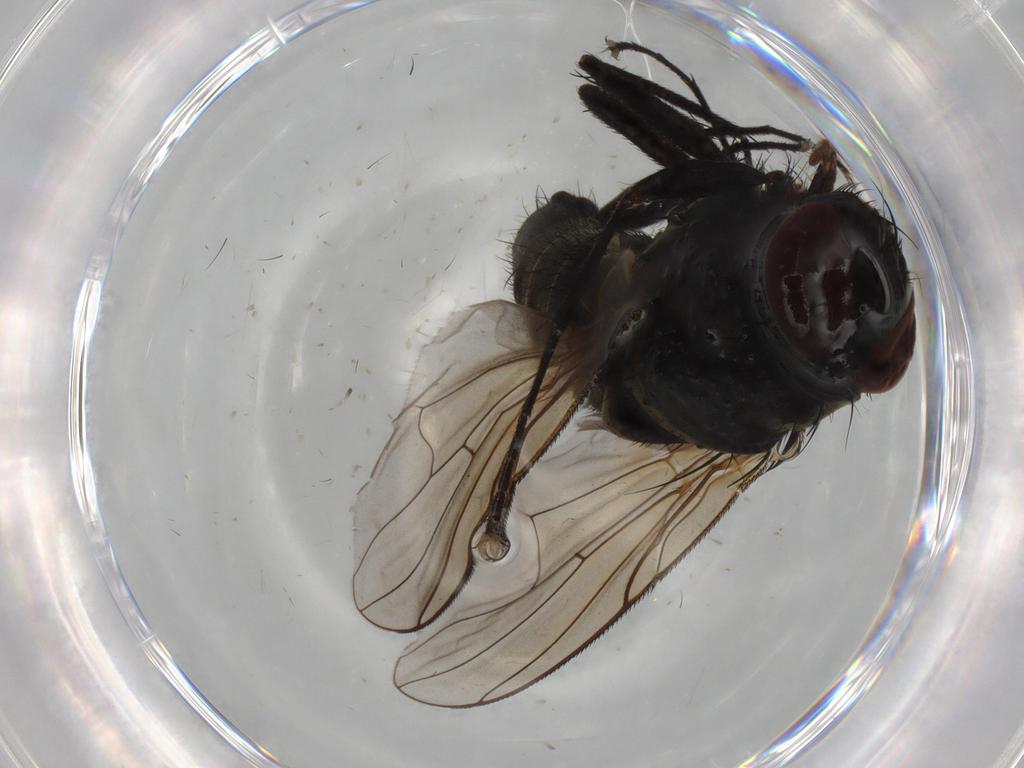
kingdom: Animalia
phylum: Arthropoda
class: Insecta
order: Diptera
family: Muscidae
